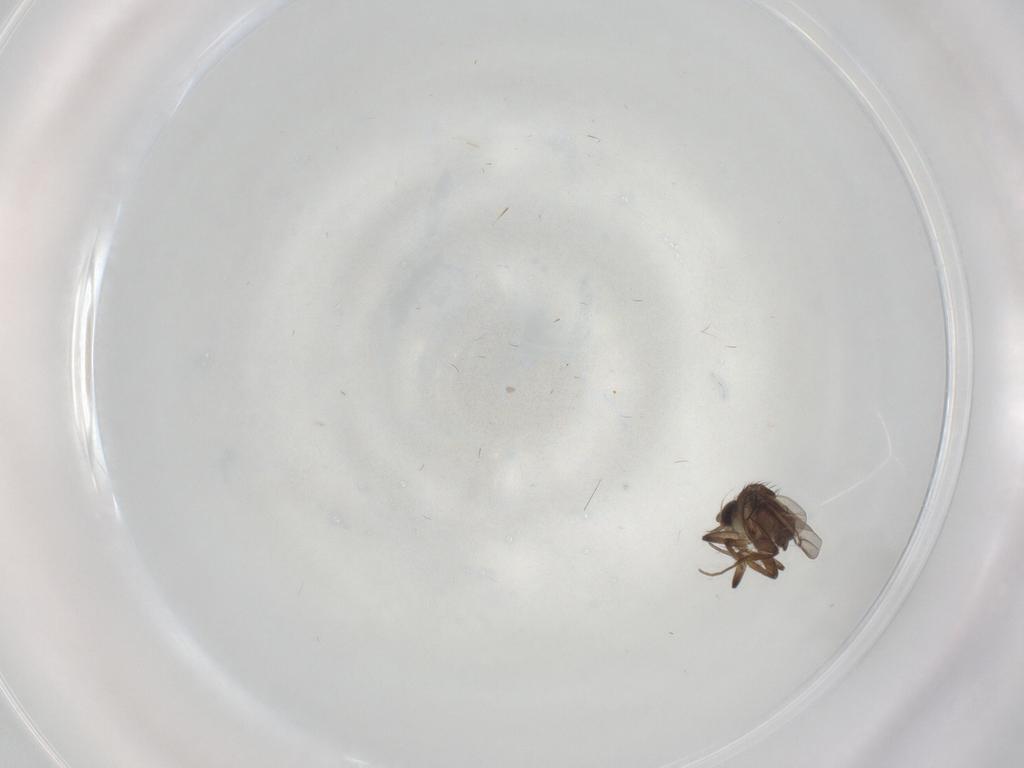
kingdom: Animalia
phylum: Arthropoda
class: Insecta
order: Diptera
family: Phoridae
